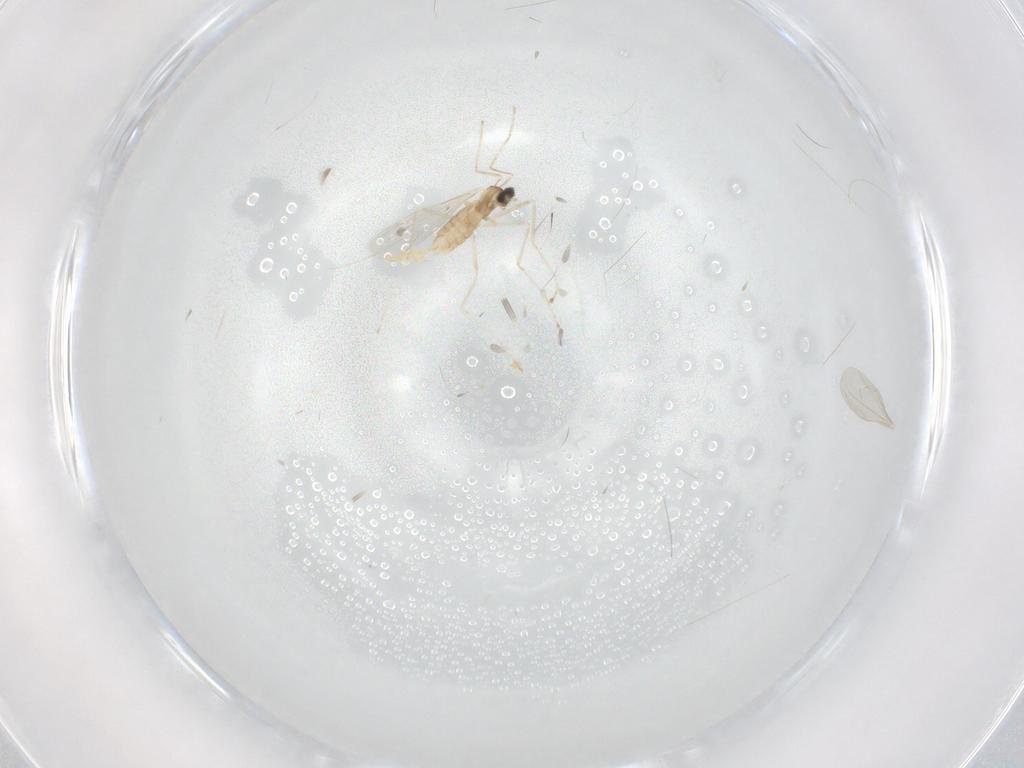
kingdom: Animalia
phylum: Arthropoda
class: Insecta
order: Diptera
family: Cecidomyiidae
